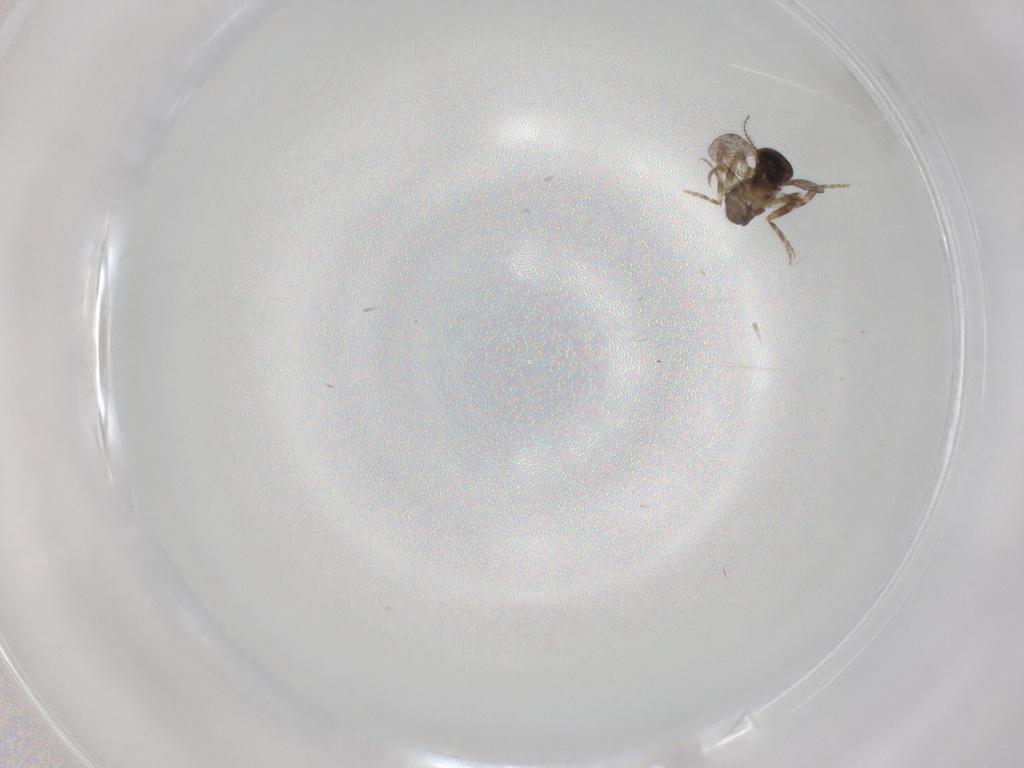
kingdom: Animalia
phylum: Arthropoda
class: Insecta
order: Diptera
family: Ceratopogonidae
